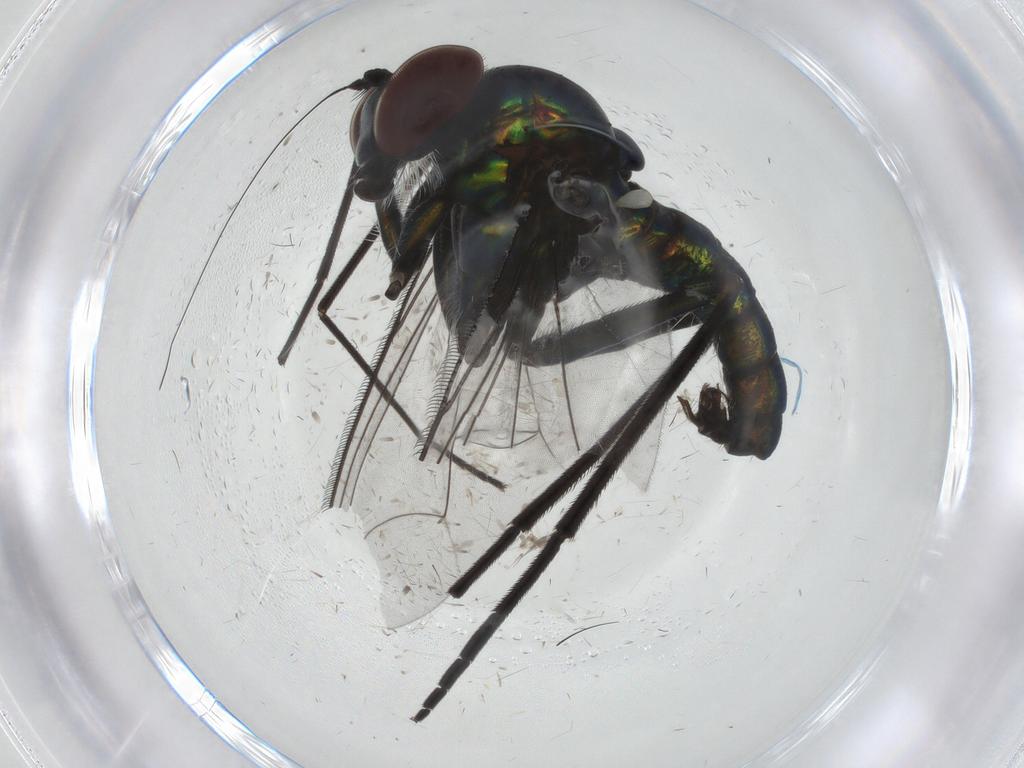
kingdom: Animalia
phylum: Arthropoda
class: Insecta
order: Diptera
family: Dolichopodidae
